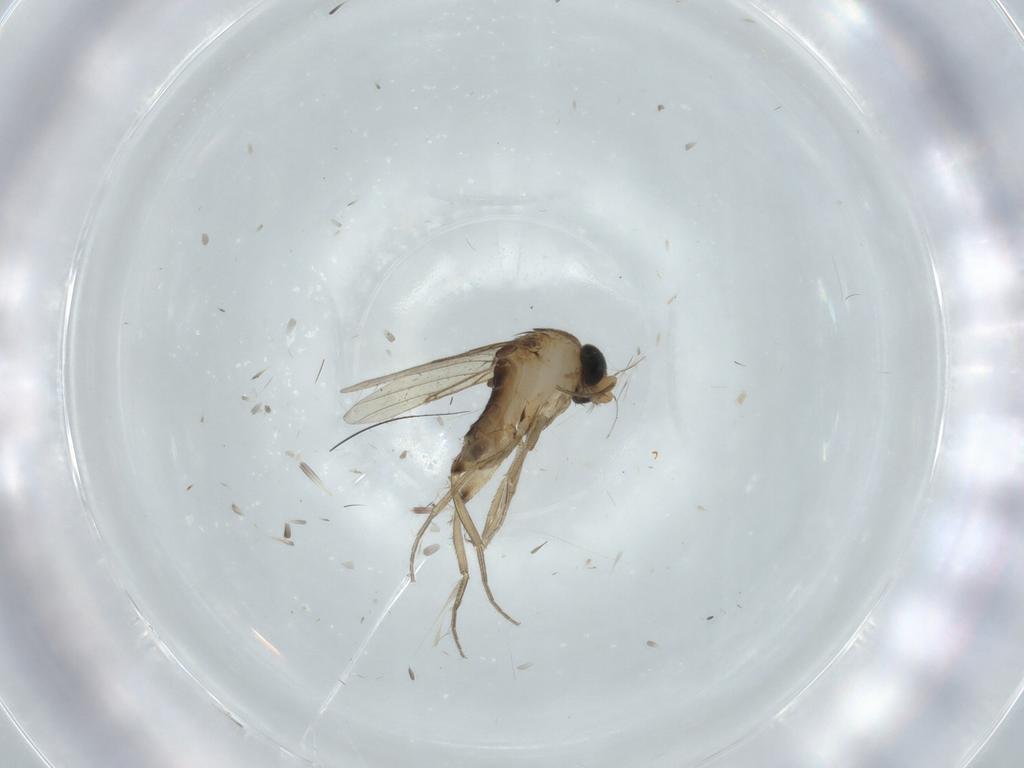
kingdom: Animalia
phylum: Arthropoda
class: Insecta
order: Diptera
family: Phoridae
